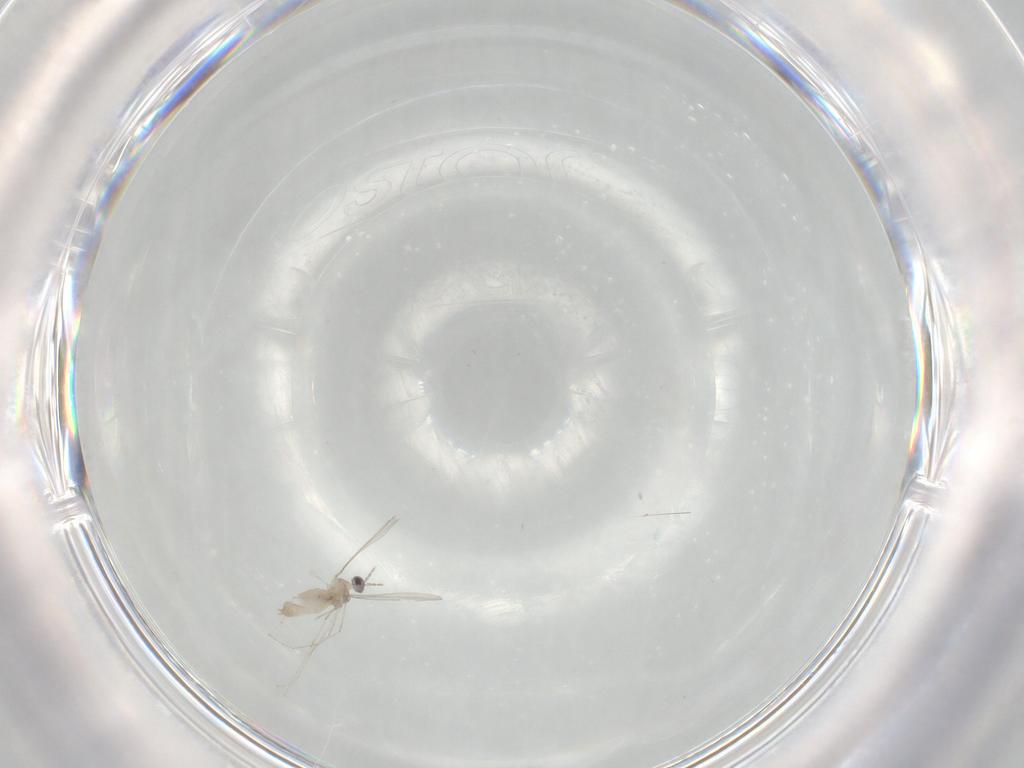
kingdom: Animalia
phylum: Arthropoda
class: Insecta
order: Diptera
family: Cecidomyiidae
